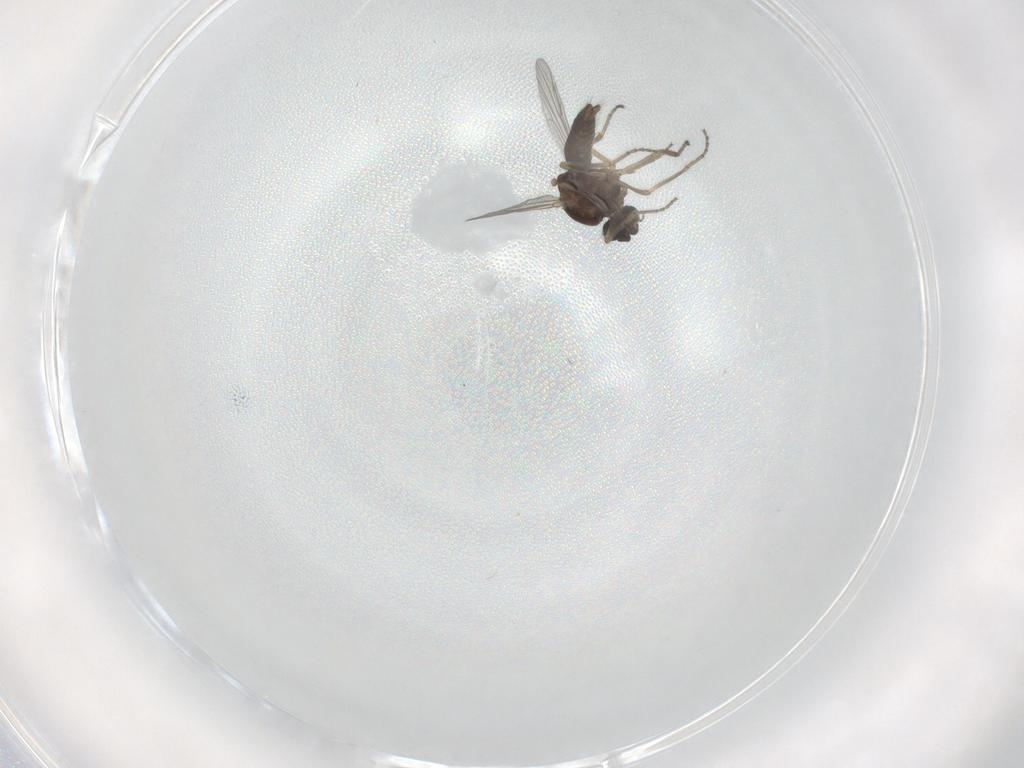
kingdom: Animalia
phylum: Arthropoda
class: Insecta
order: Diptera
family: Ceratopogonidae
